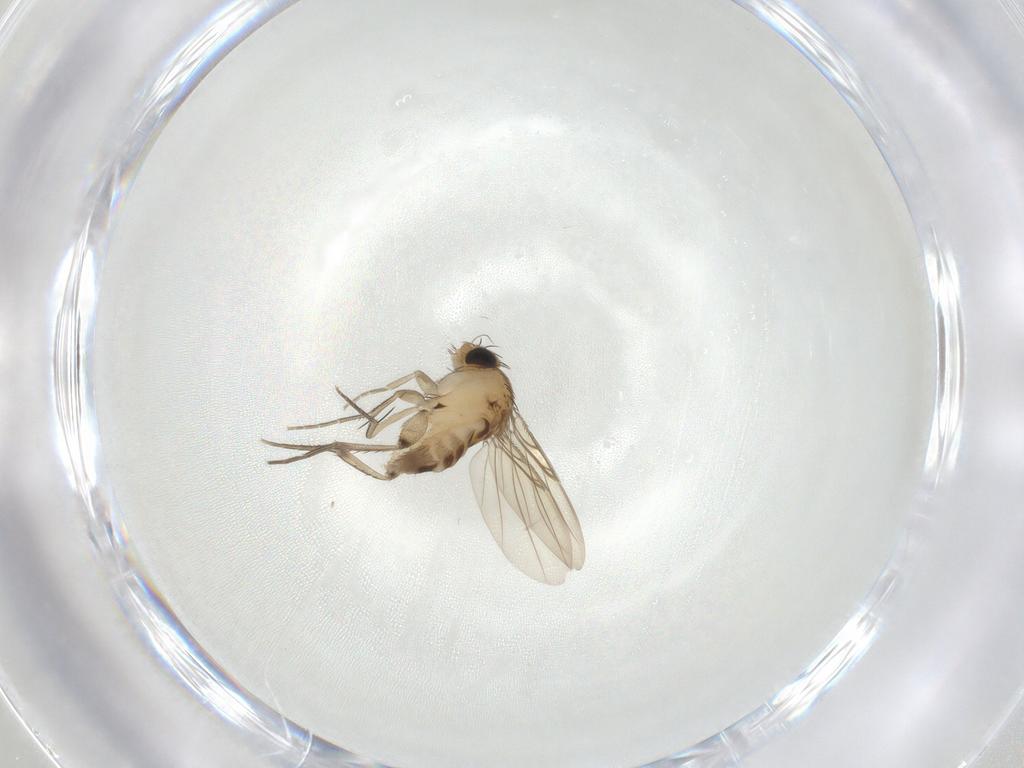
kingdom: Animalia
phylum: Arthropoda
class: Insecta
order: Diptera
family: Phoridae
